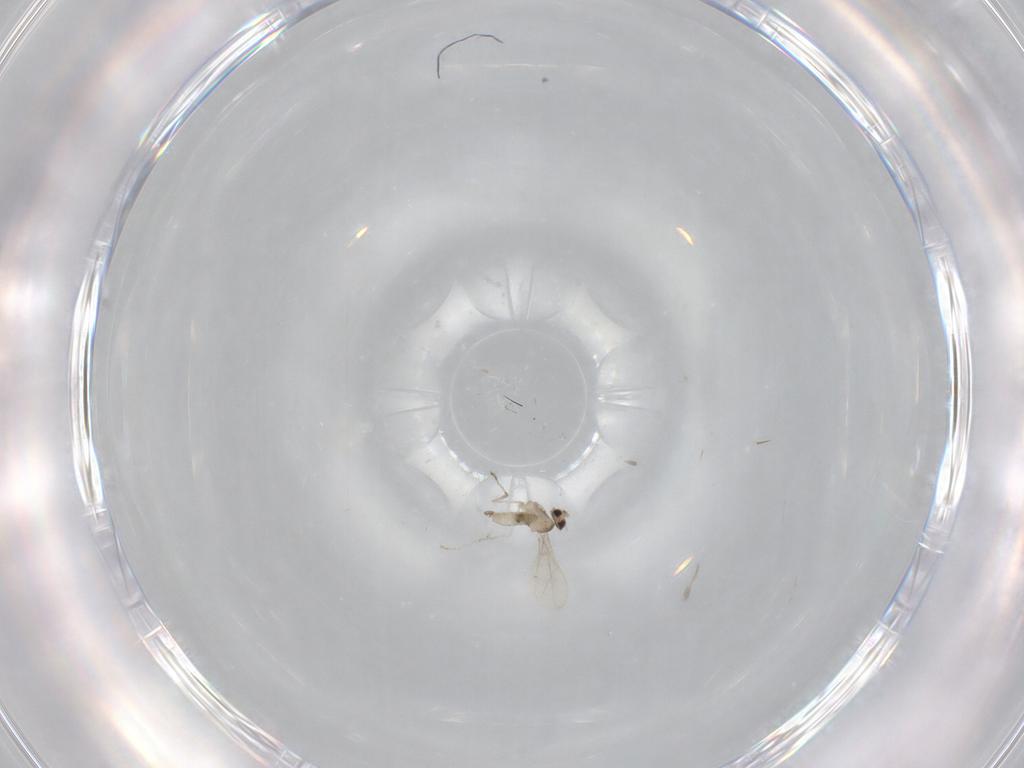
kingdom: Animalia
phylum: Arthropoda
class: Insecta
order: Diptera
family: Cecidomyiidae
